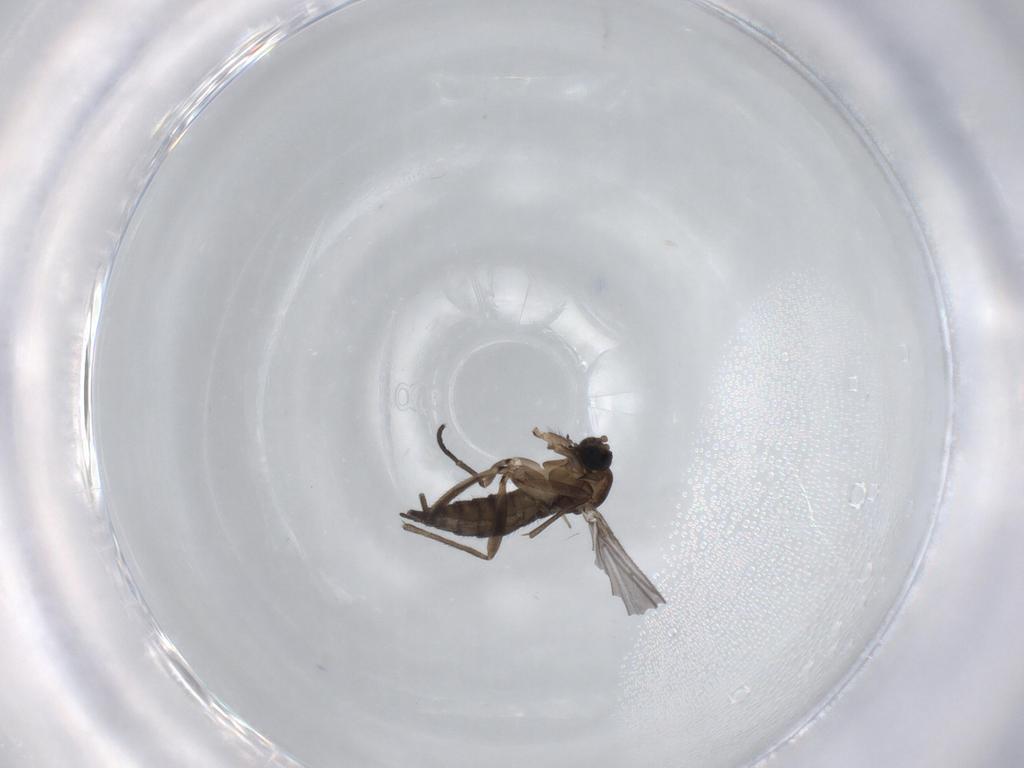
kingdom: Animalia
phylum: Arthropoda
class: Insecta
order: Diptera
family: Sciaridae
